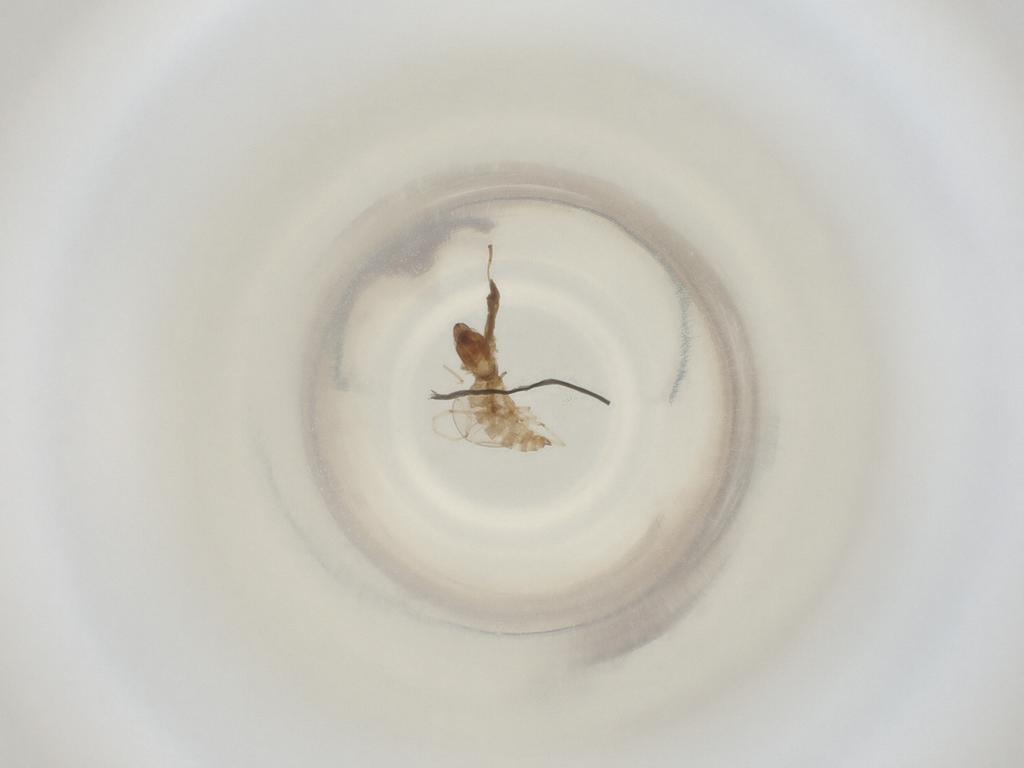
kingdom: Animalia
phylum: Arthropoda
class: Insecta
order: Diptera
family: Cecidomyiidae
